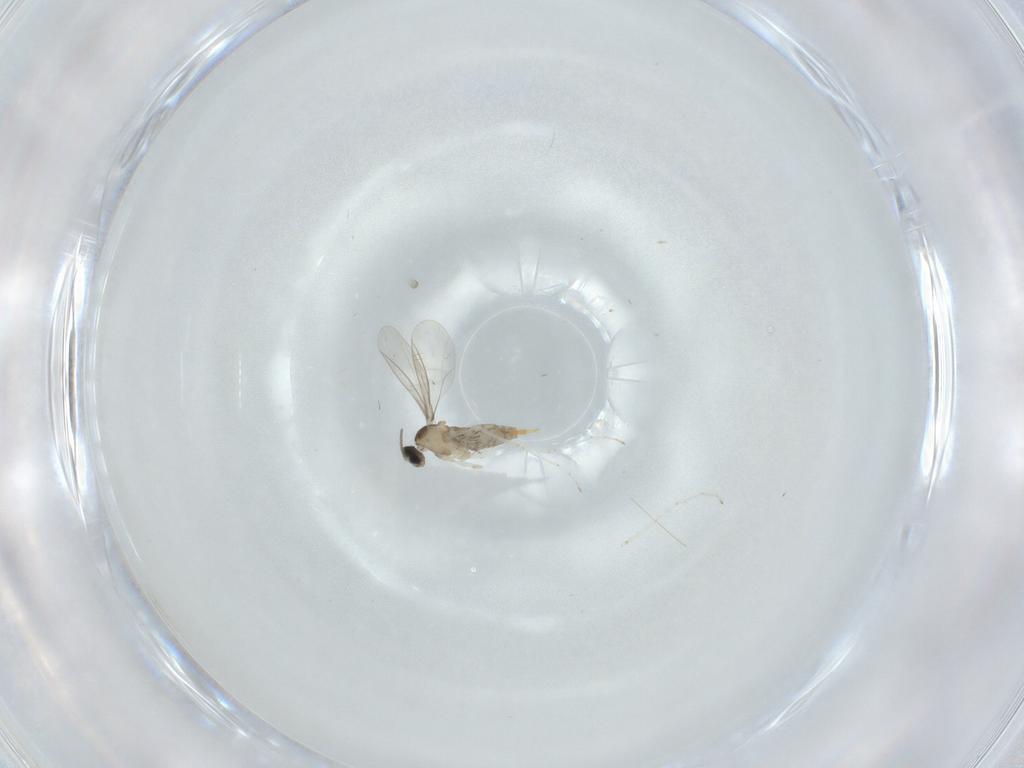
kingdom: Animalia
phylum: Arthropoda
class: Insecta
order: Diptera
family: Cecidomyiidae
